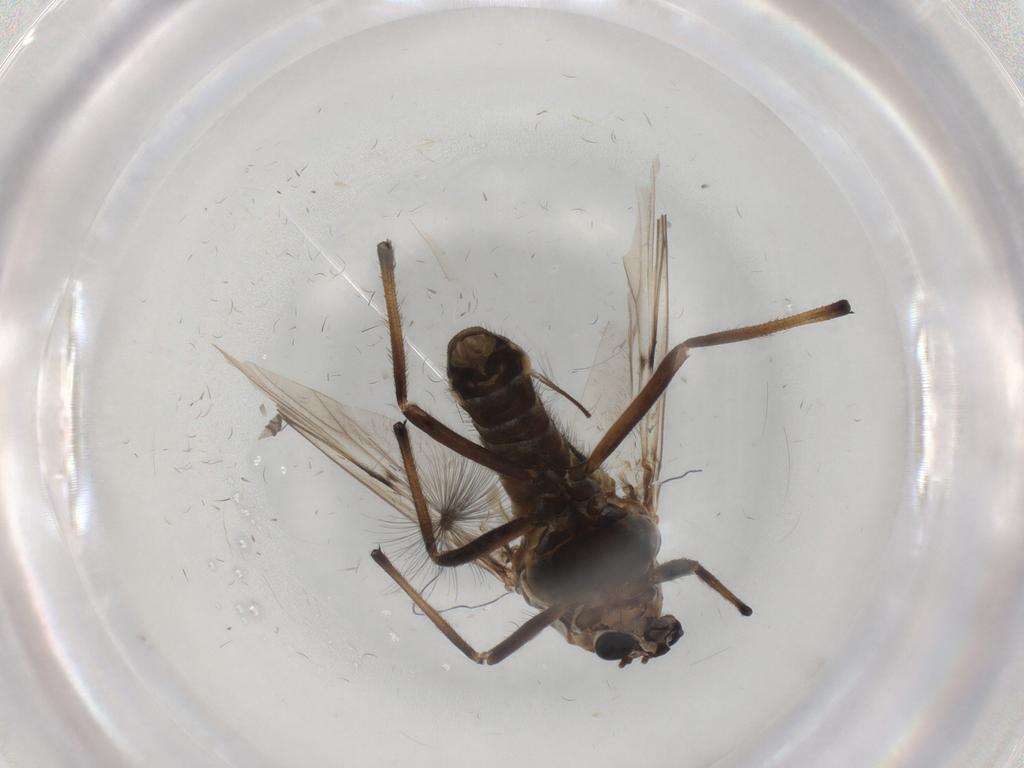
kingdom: Animalia
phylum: Arthropoda
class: Insecta
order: Diptera
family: Chironomidae
